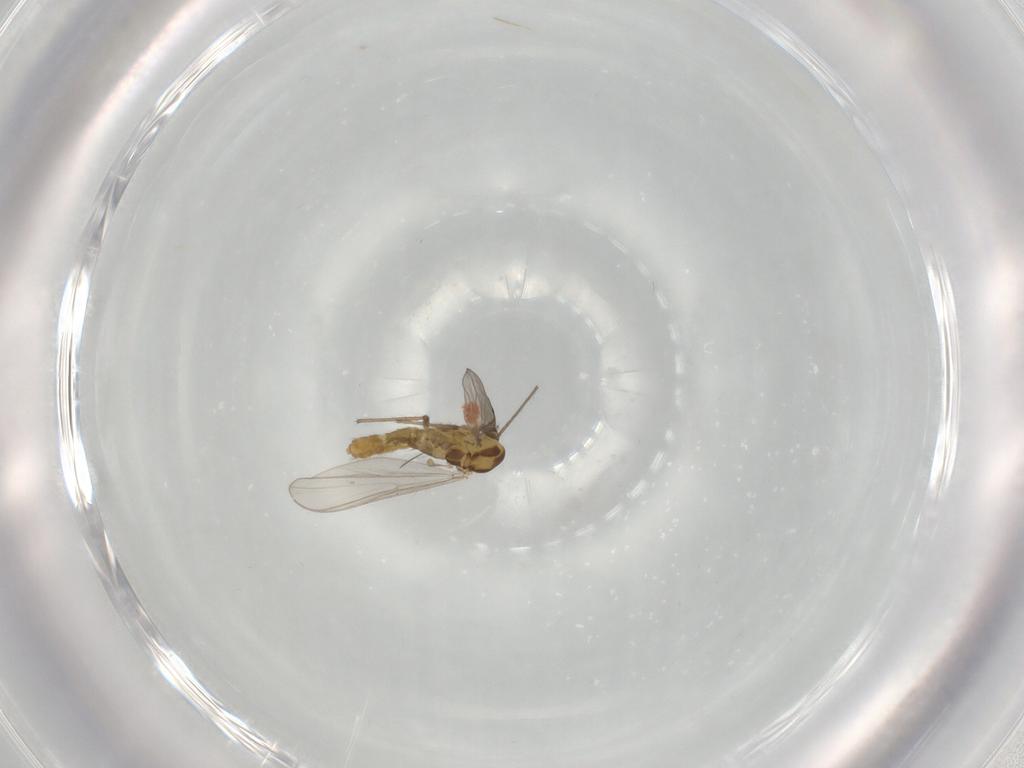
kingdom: Animalia
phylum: Arthropoda
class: Insecta
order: Diptera
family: Chironomidae
